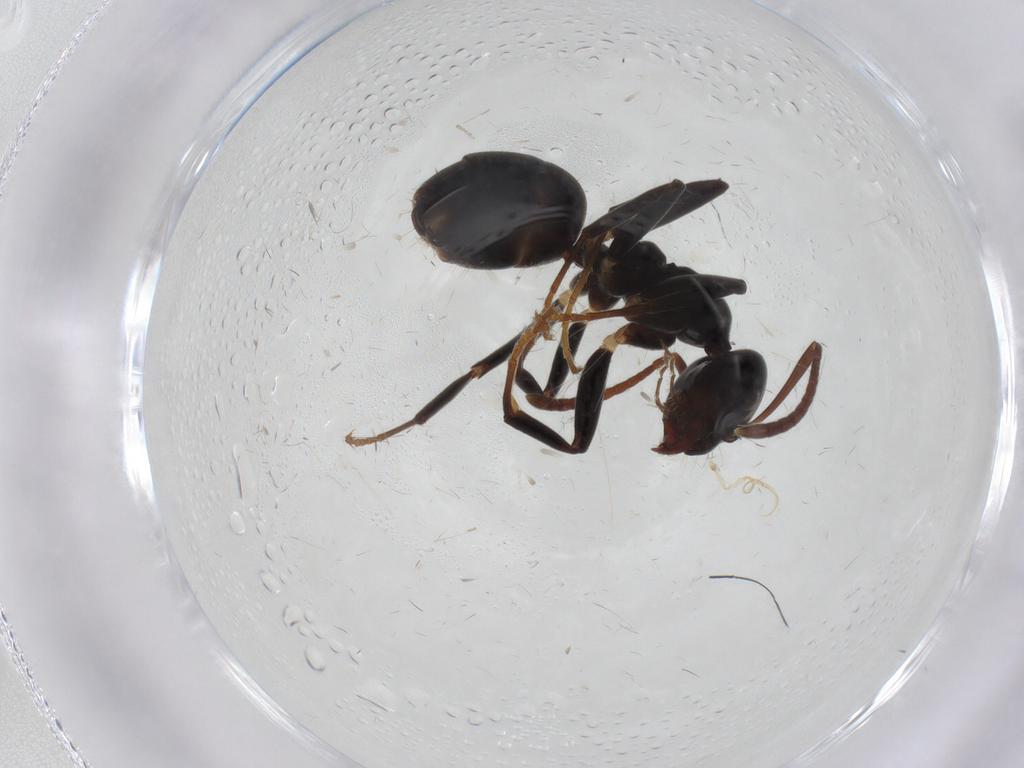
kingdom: Animalia
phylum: Arthropoda
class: Insecta
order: Hymenoptera
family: Formicidae
